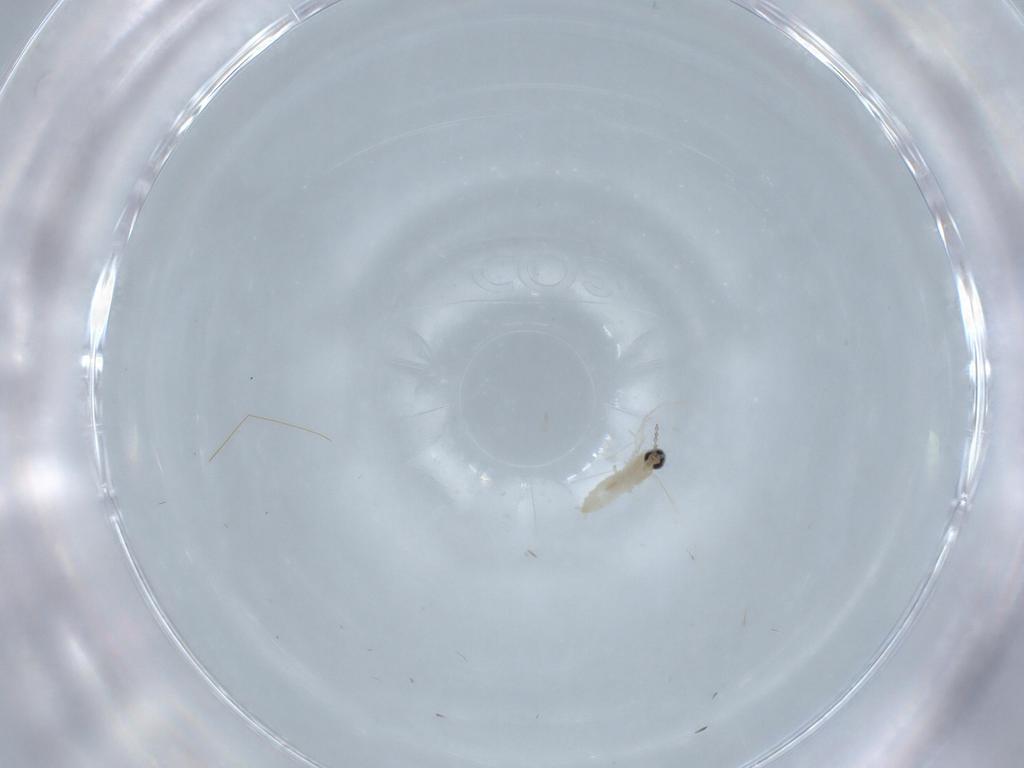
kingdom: Animalia
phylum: Arthropoda
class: Insecta
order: Diptera
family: Cecidomyiidae
